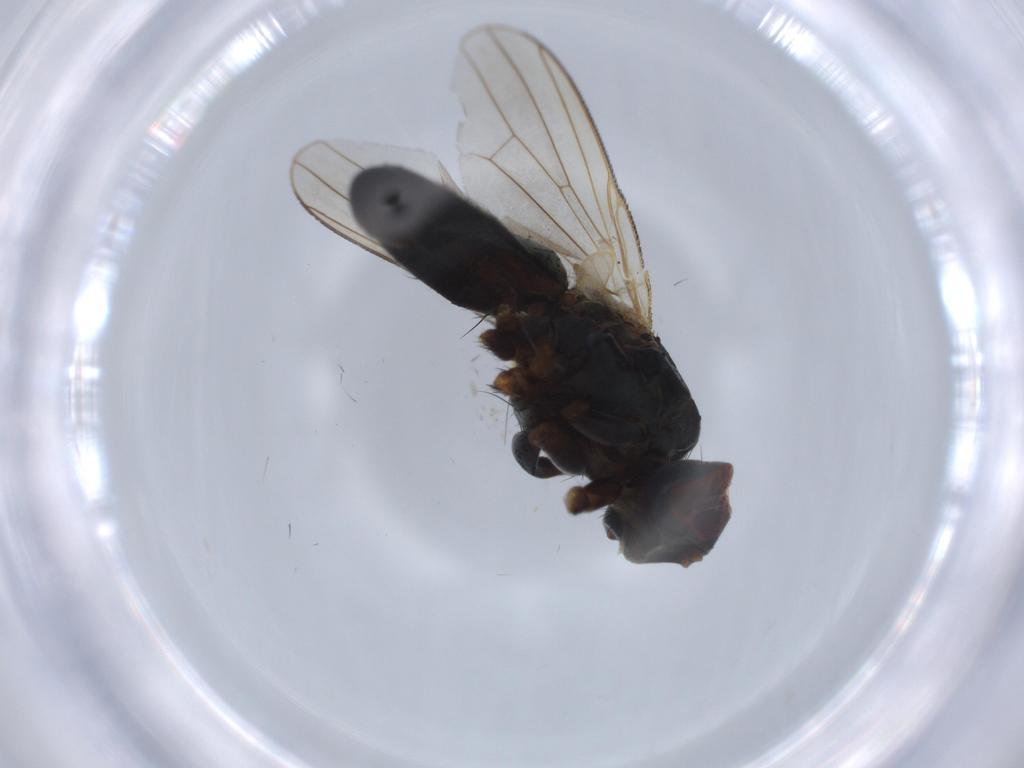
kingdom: Animalia
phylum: Arthropoda
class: Insecta
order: Diptera
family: Chironomidae
